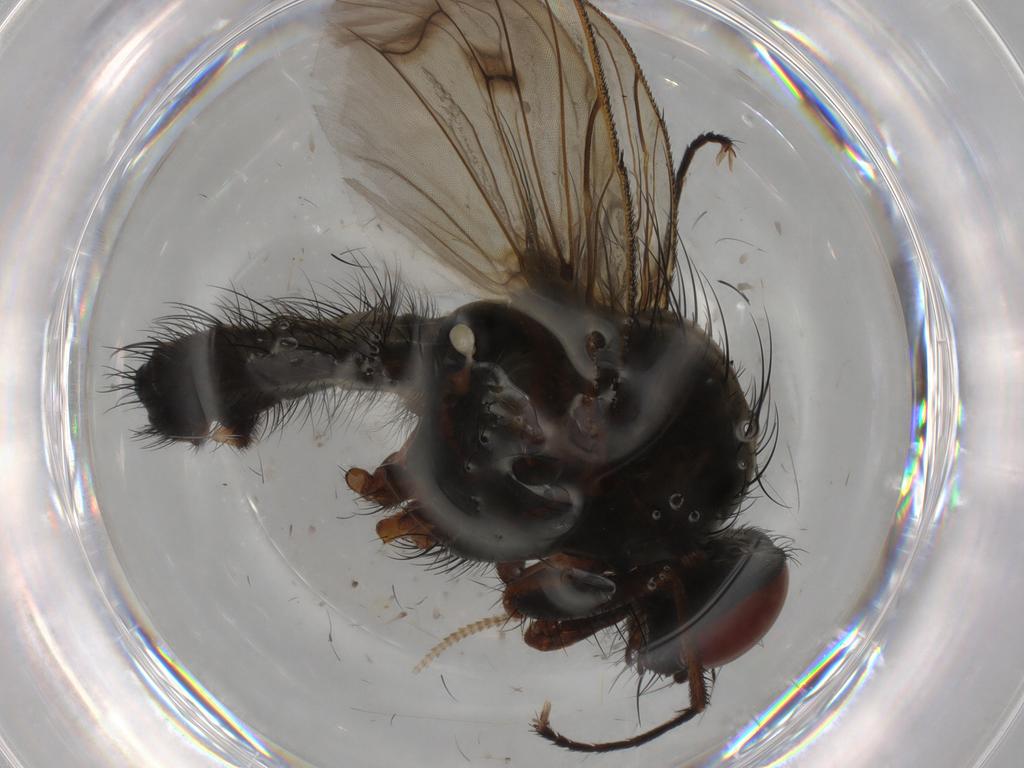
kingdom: Animalia
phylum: Arthropoda
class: Insecta
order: Diptera
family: Anthomyiidae
